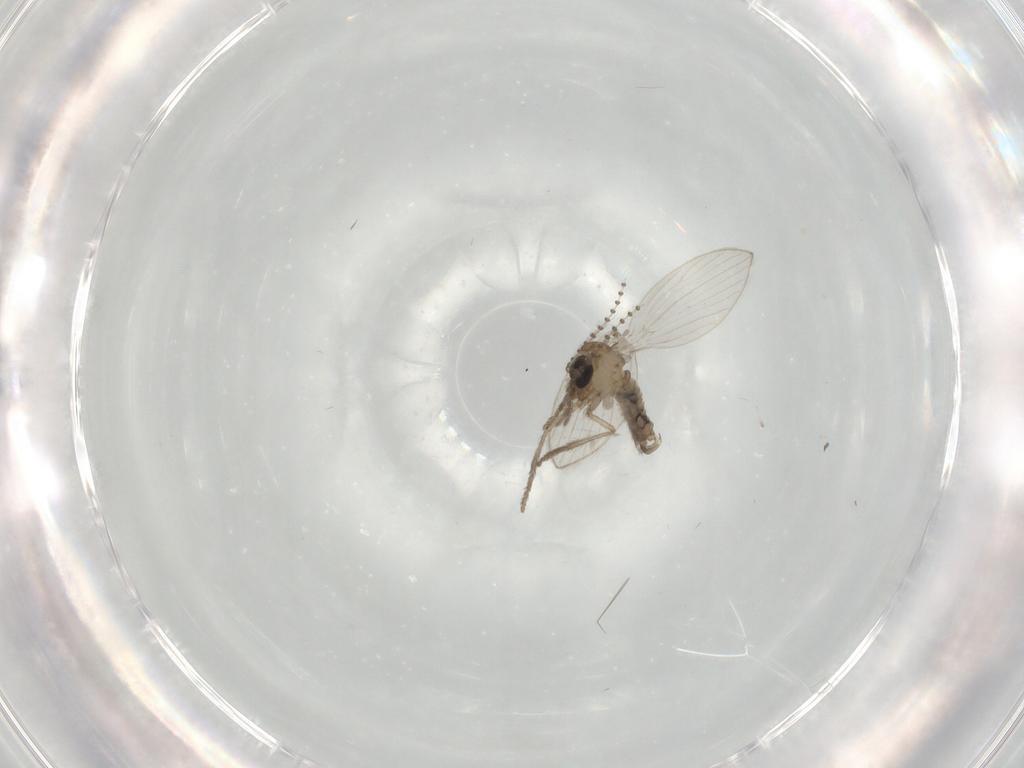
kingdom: Animalia
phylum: Arthropoda
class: Insecta
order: Diptera
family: Psychodidae
